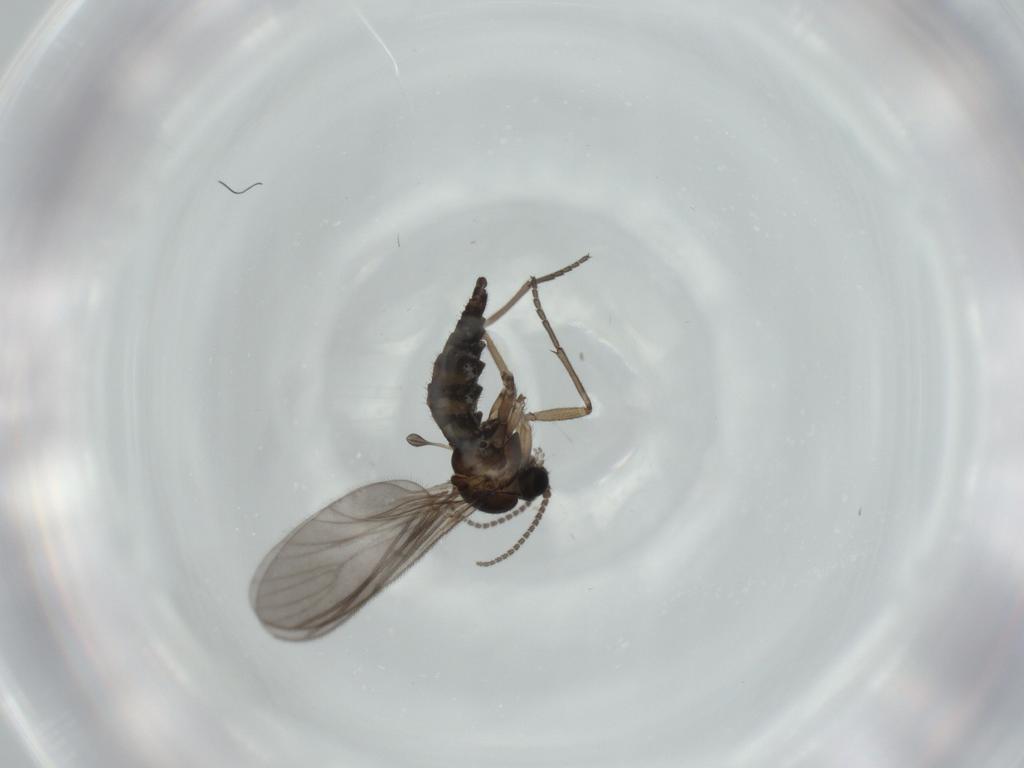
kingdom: Animalia
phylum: Arthropoda
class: Insecta
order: Diptera
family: Sciaridae
